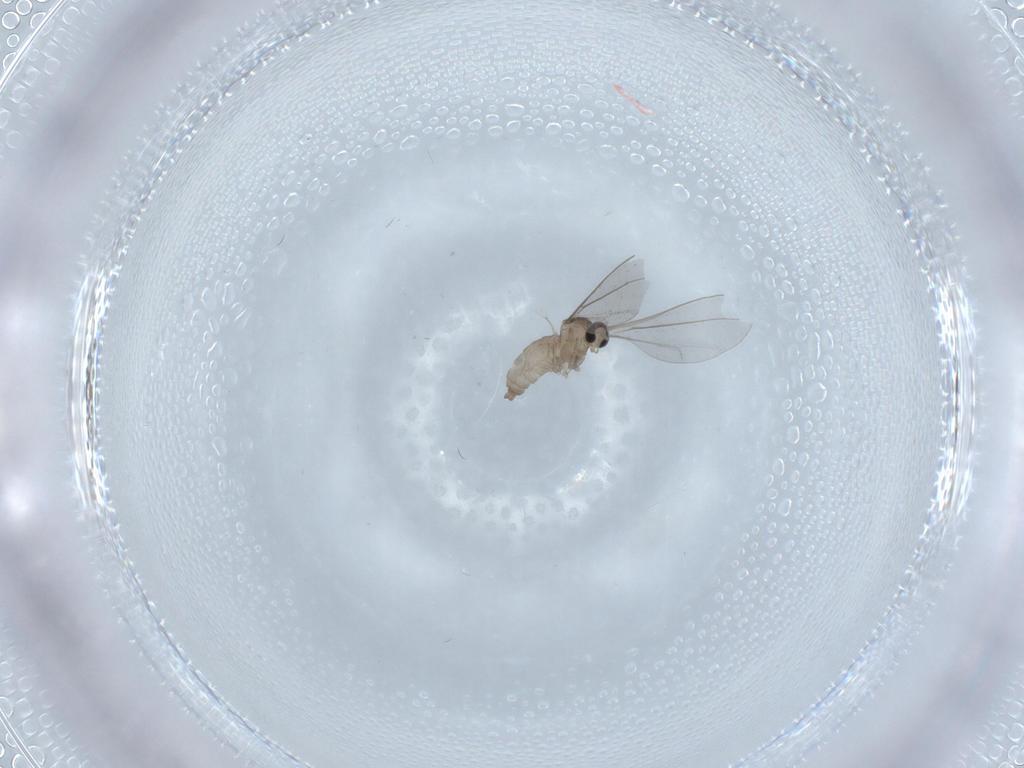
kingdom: Animalia
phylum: Arthropoda
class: Insecta
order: Diptera
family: Cecidomyiidae
